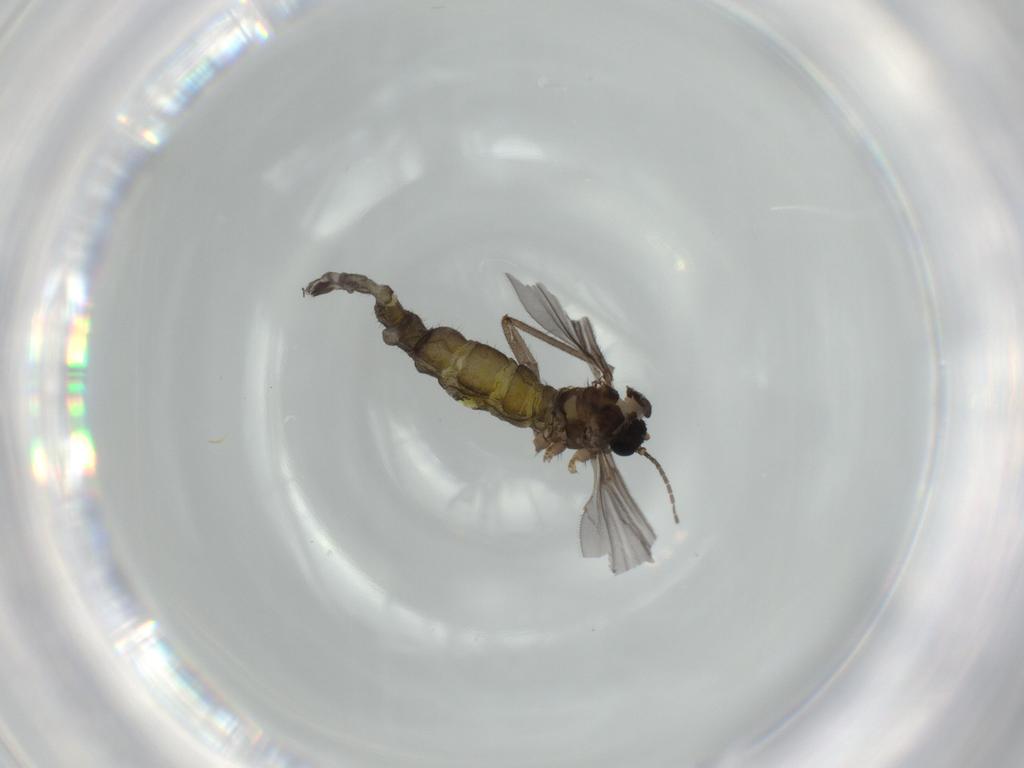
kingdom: Animalia
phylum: Arthropoda
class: Insecta
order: Diptera
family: Sciaridae
